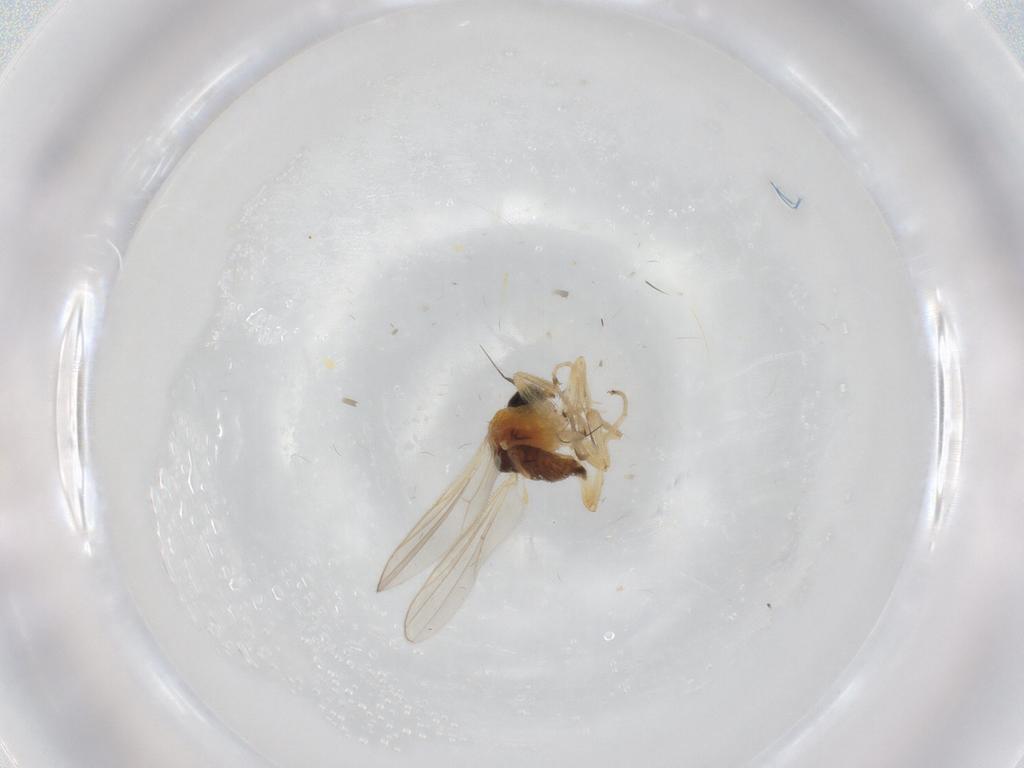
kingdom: Animalia
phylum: Arthropoda
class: Insecta
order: Diptera
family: Hybotidae
